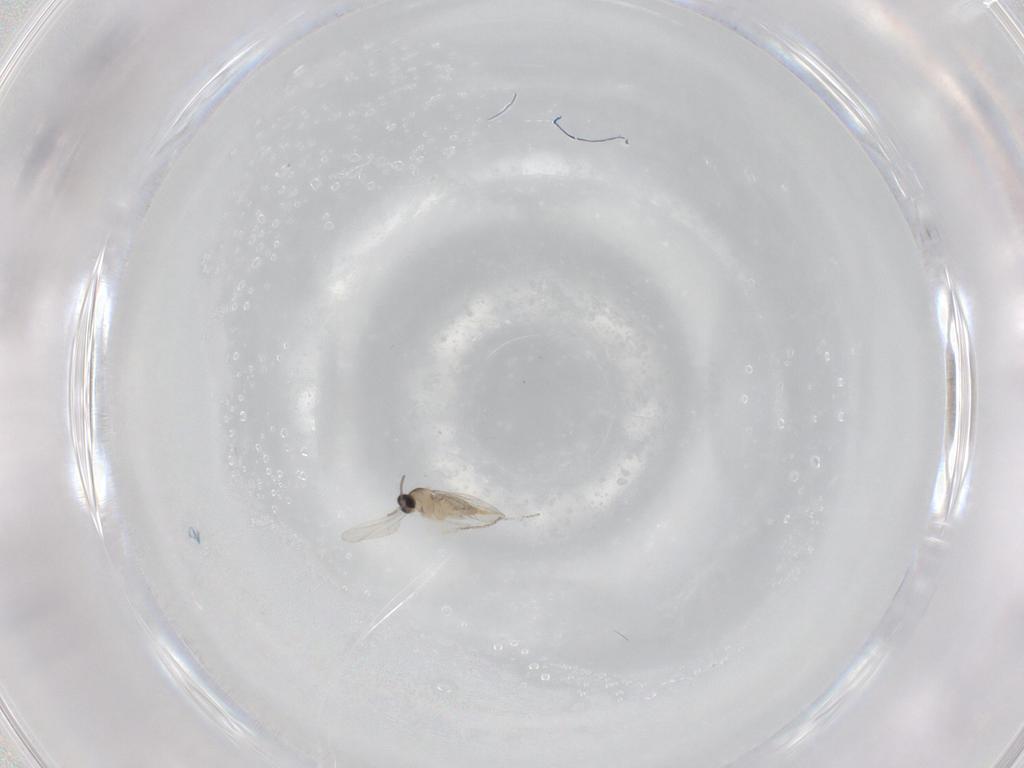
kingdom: Animalia
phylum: Arthropoda
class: Insecta
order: Diptera
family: Cecidomyiidae
